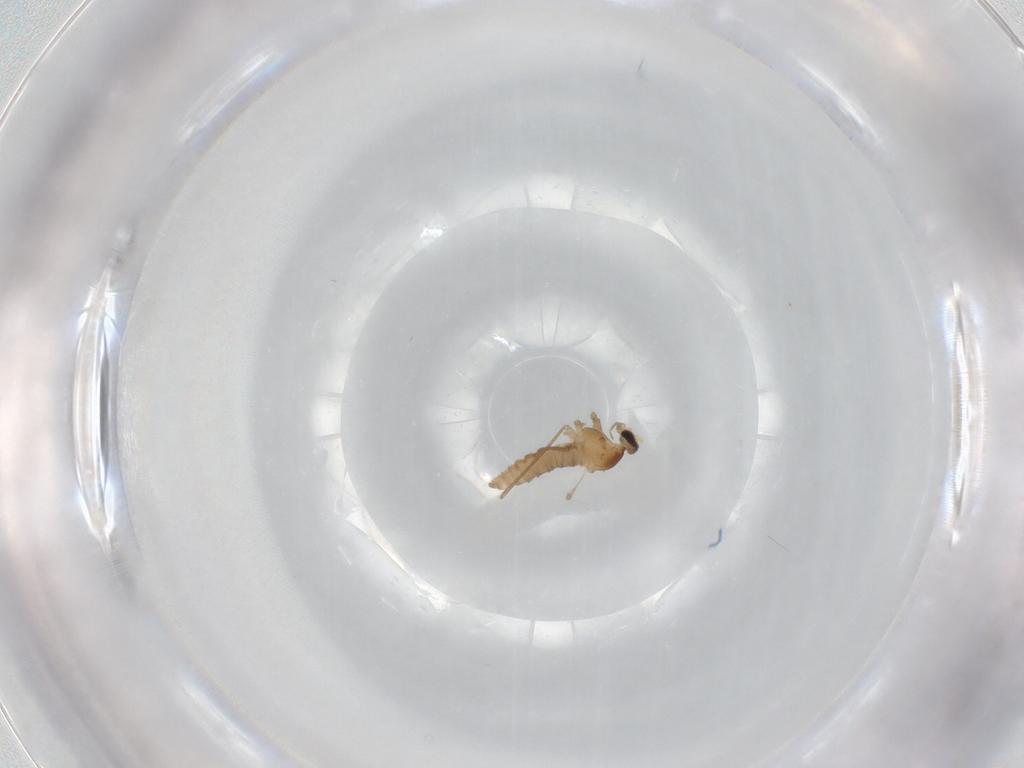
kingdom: Animalia
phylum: Arthropoda
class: Insecta
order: Diptera
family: Cecidomyiidae
